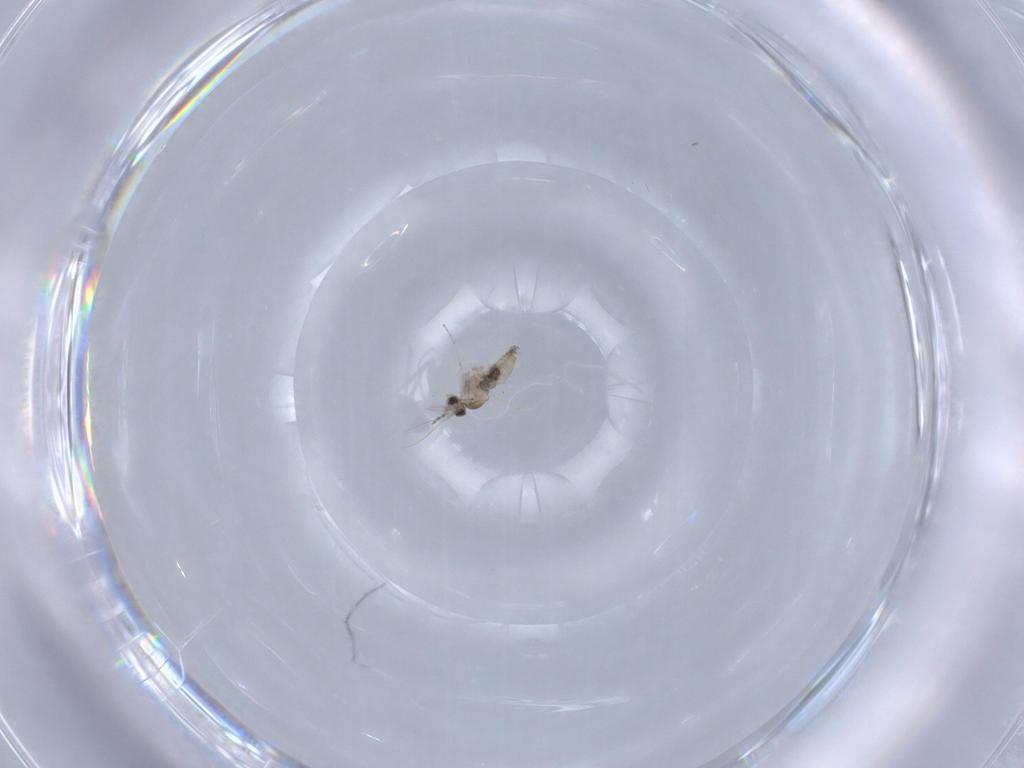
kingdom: Animalia
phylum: Arthropoda
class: Insecta
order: Diptera
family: Cecidomyiidae
